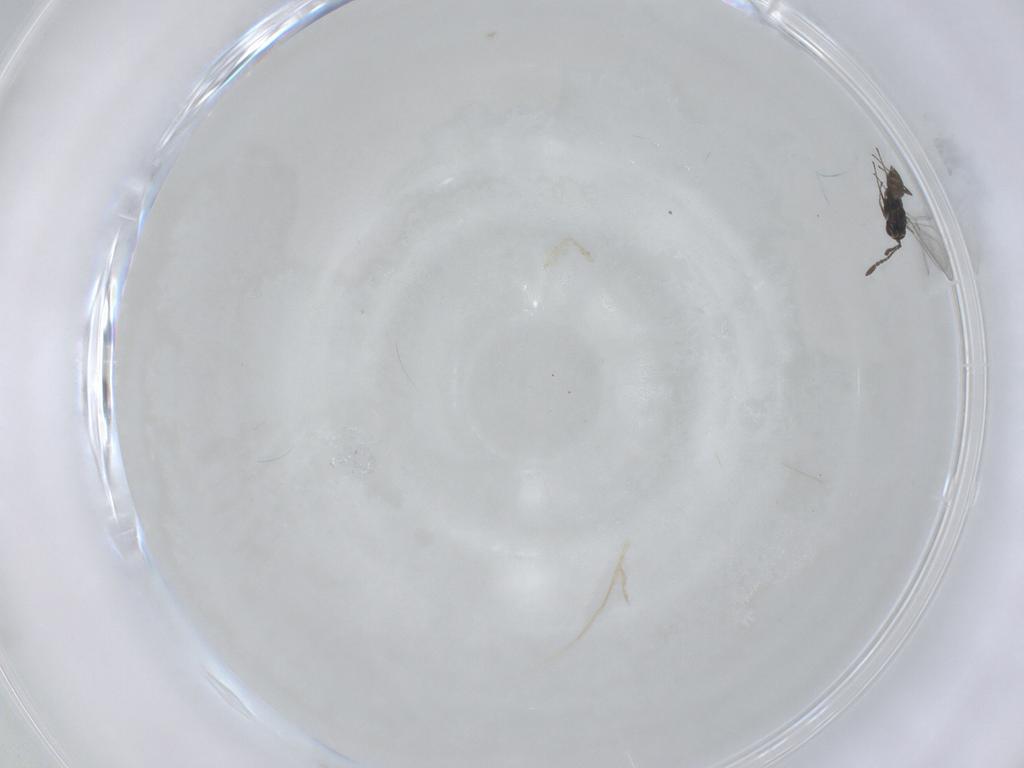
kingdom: Animalia
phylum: Arthropoda
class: Insecta
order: Hymenoptera
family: Mymaridae
